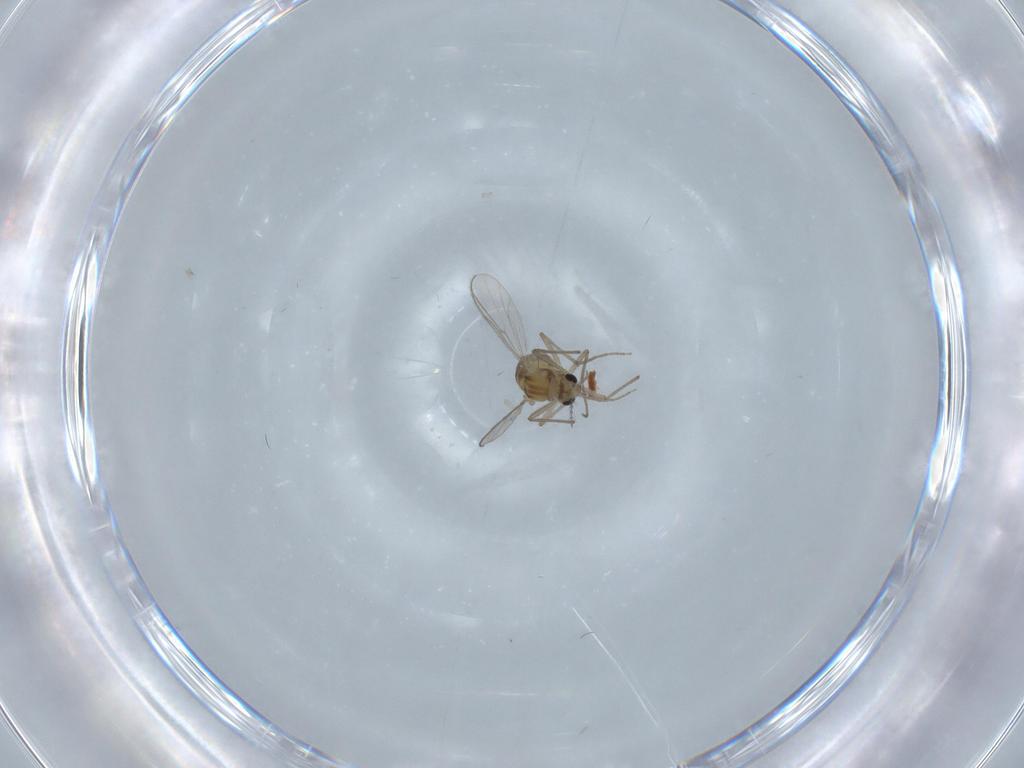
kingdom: Animalia
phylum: Arthropoda
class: Insecta
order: Diptera
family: Chironomidae
